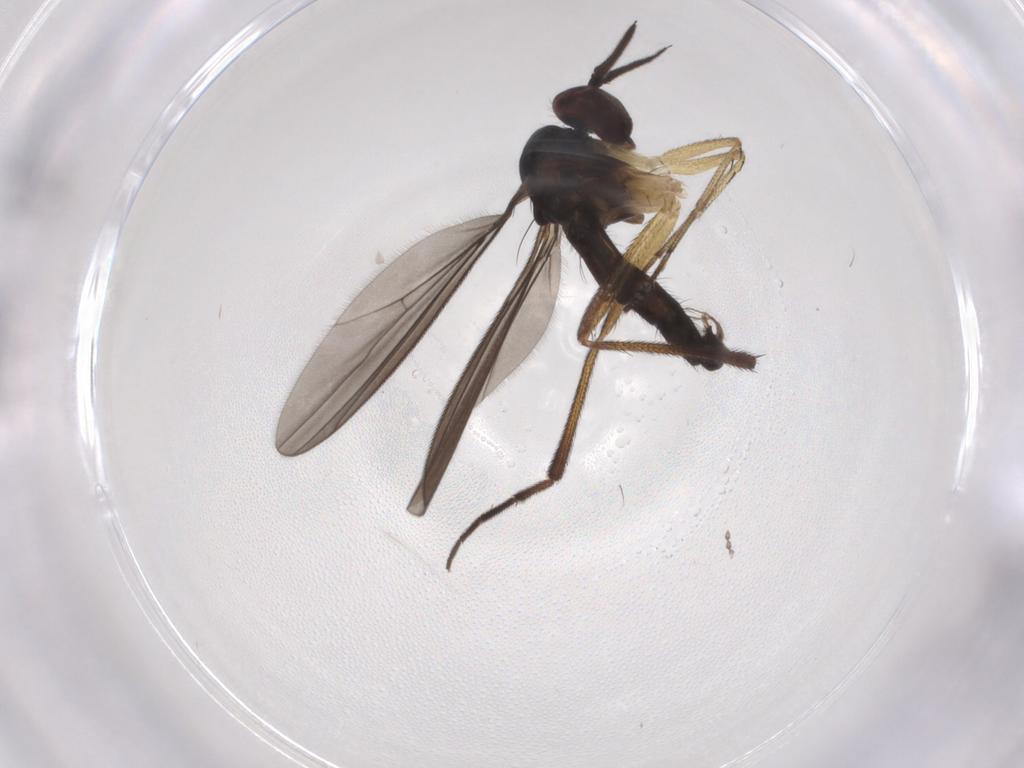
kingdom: Animalia
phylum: Arthropoda
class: Insecta
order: Diptera
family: Dolichopodidae
